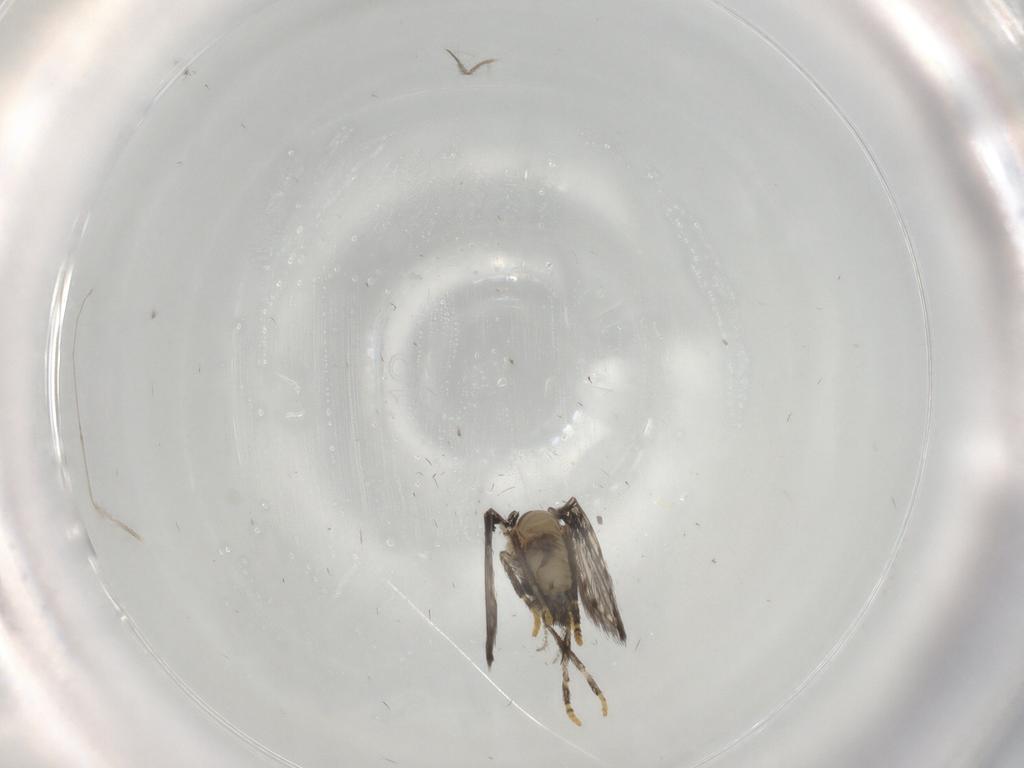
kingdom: Animalia
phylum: Arthropoda
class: Insecta
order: Diptera
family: Psychodidae
